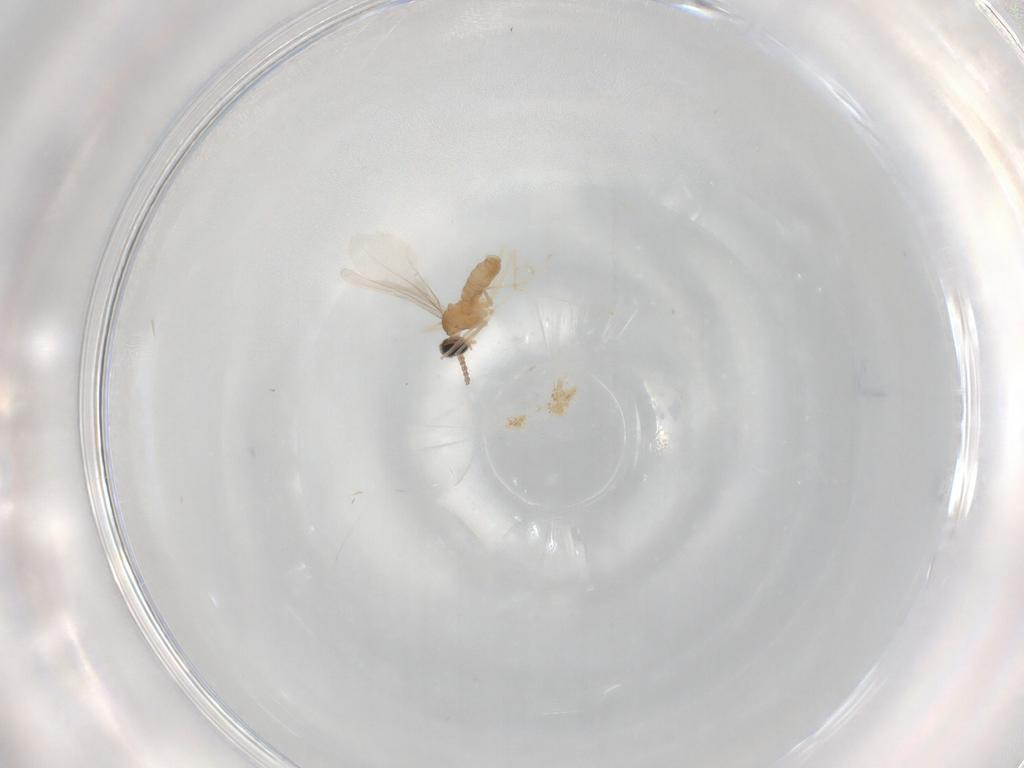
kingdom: Animalia
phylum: Arthropoda
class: Insecta
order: Diptera
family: Cecidomyiidae
